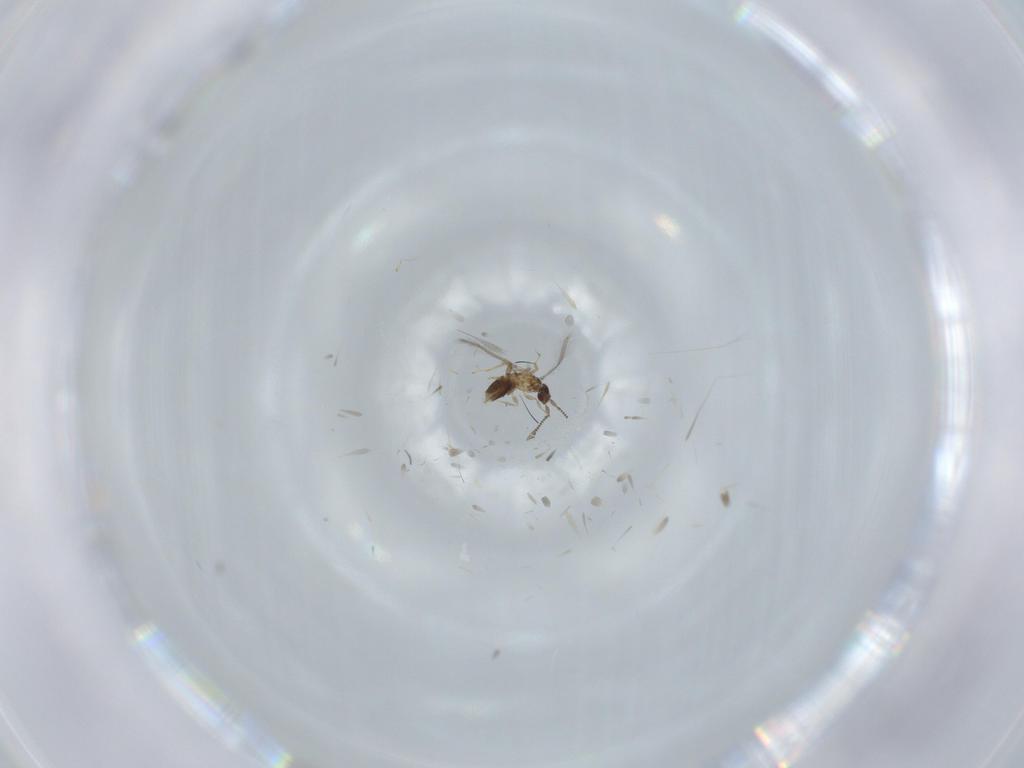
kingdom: Animalia
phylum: Arthropoda
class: Insecta
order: Hymenoptera
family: Mymaridae
